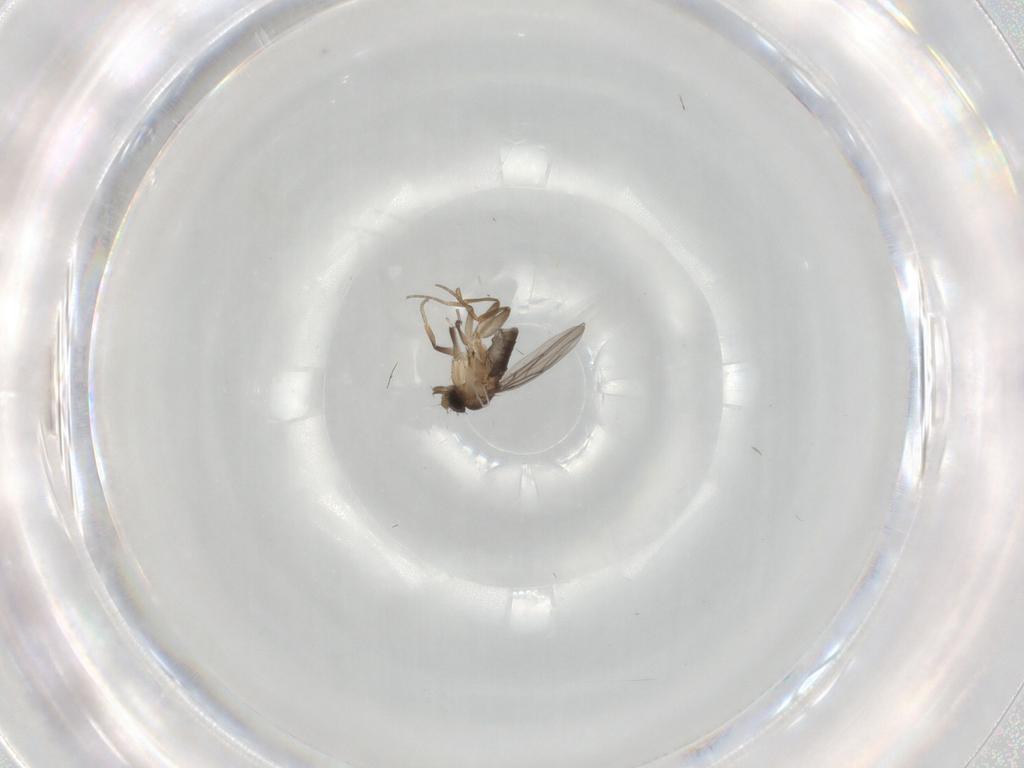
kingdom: Animalia
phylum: Arthropoda
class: Insecta
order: Diptera
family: Phoridae
